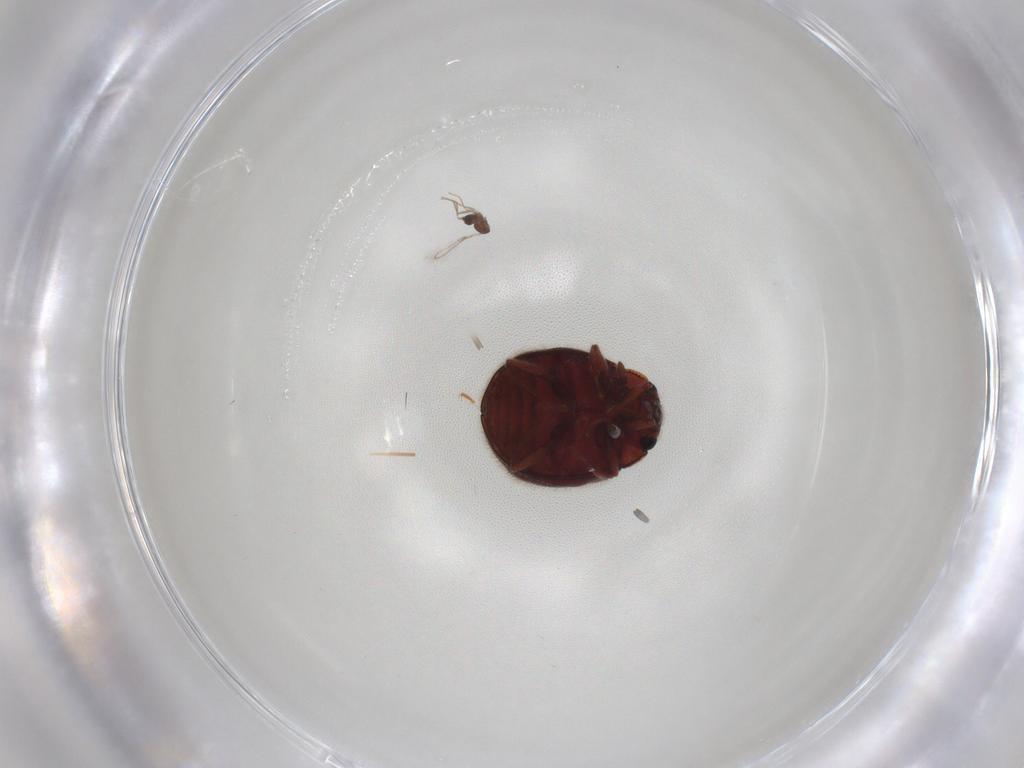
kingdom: Animalia
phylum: Arthropoda
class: Insecta
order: Coleoptera
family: Sphindidae
